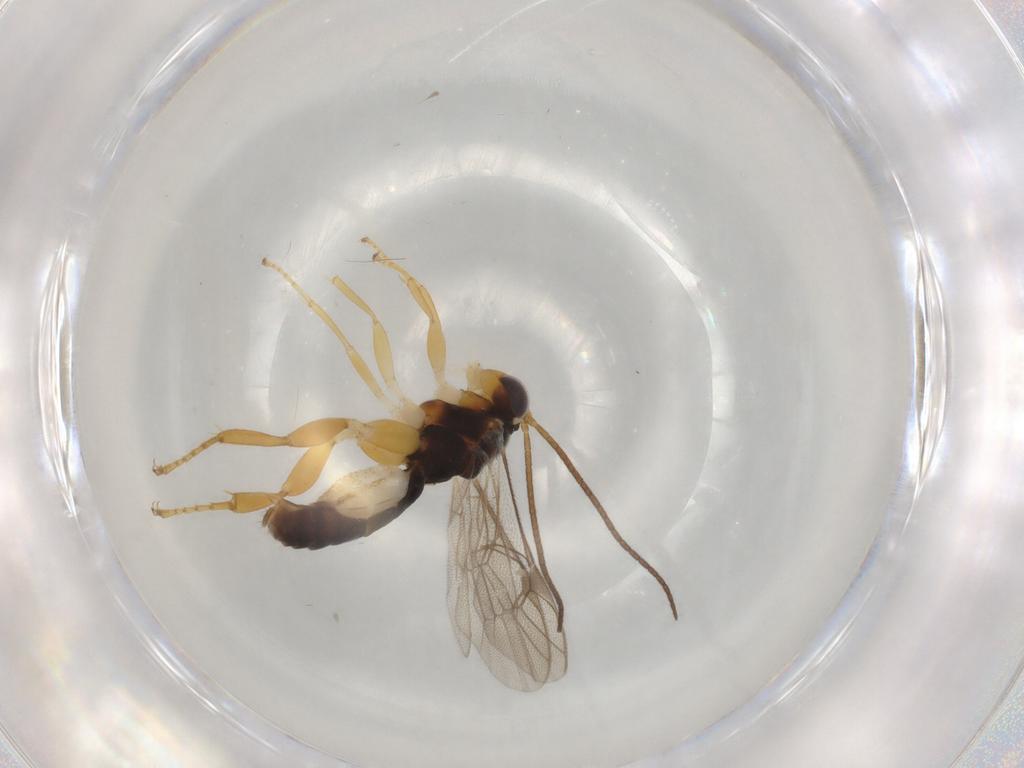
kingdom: Animalia
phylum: Arthropoda
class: Insecta
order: Hymenoptera
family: Ichneumonidae
